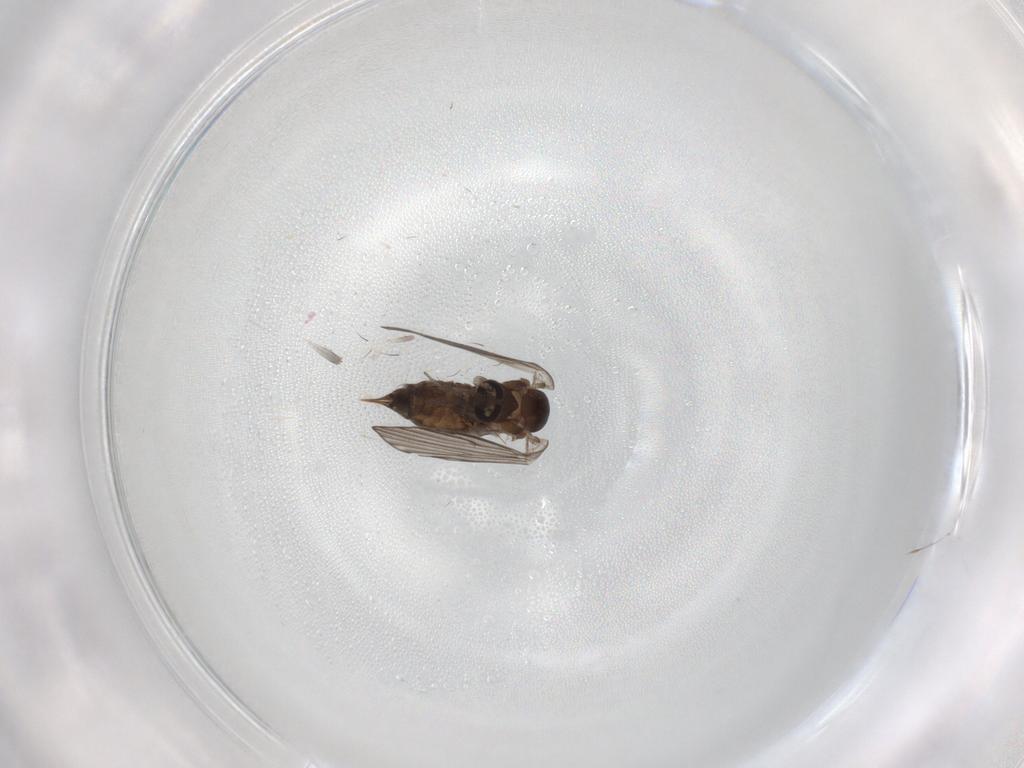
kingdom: Animalia
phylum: Arthropoda
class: Insecta
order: Diptera
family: Psychodidae
